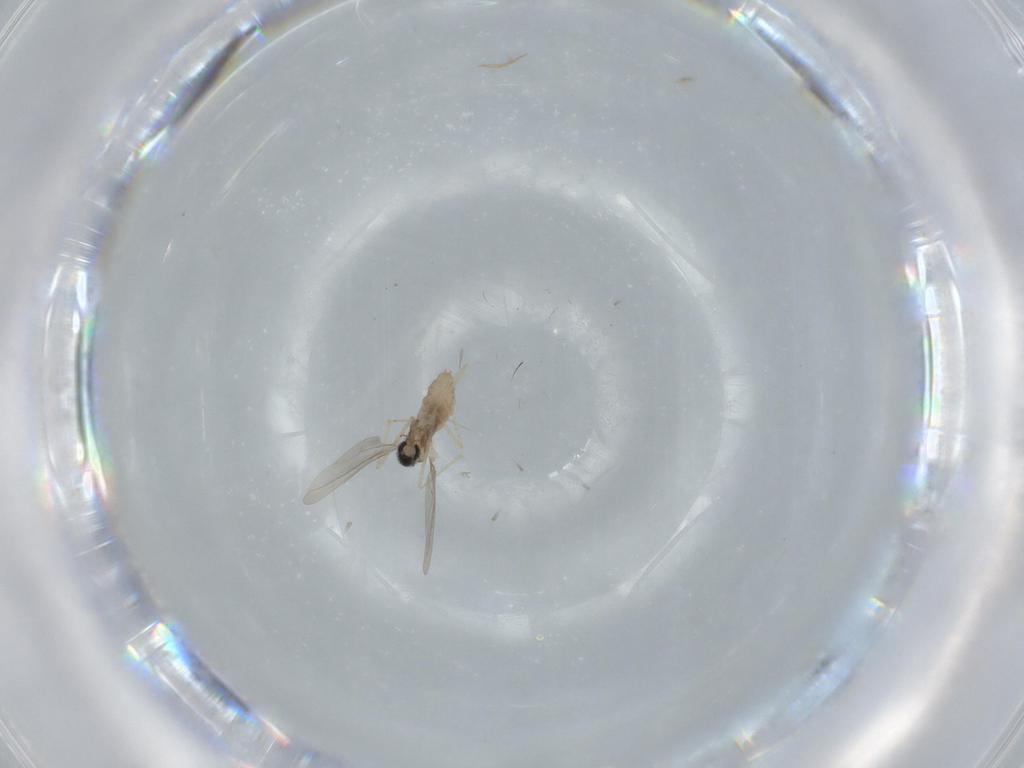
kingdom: Animalia
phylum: Arthropoda
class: Insecta
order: Diptera
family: Cecidomyiidae
